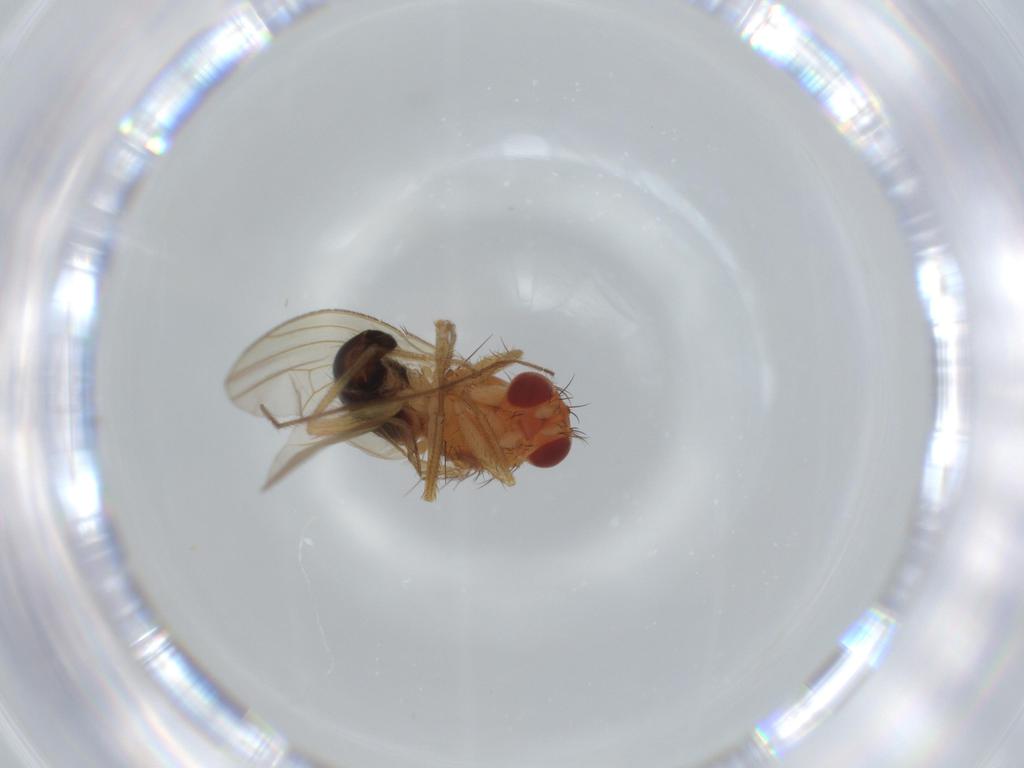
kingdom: Animalia
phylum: Arthropoda
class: Insecta
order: Diptera
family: Drosophilidae
